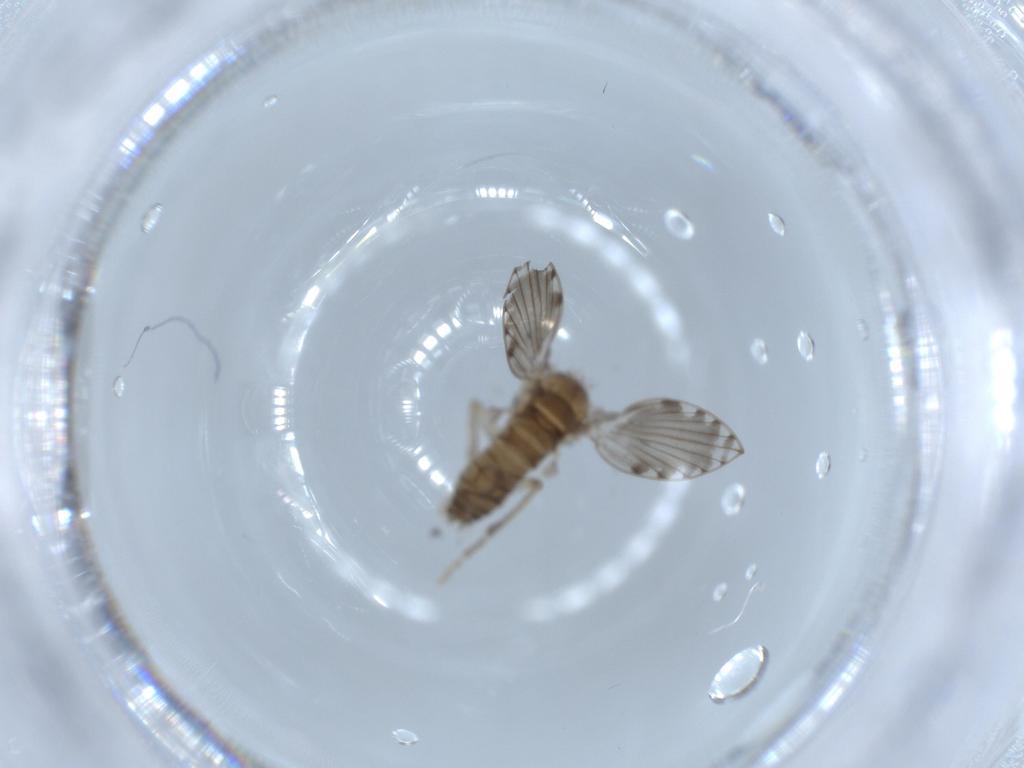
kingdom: Animalia
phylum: Arthropoda
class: Insecta
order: Diptera
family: Psychodidae
